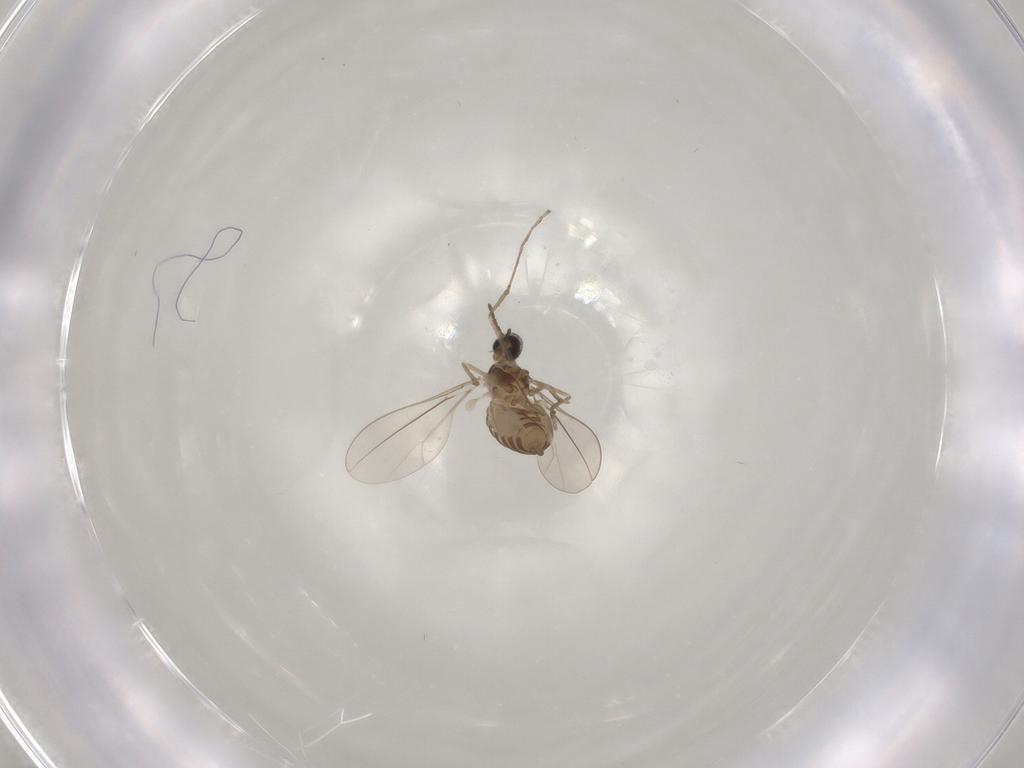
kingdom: Animalia
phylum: Arthropoda
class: Insecta
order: Diptera
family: Cecidomyiidae
